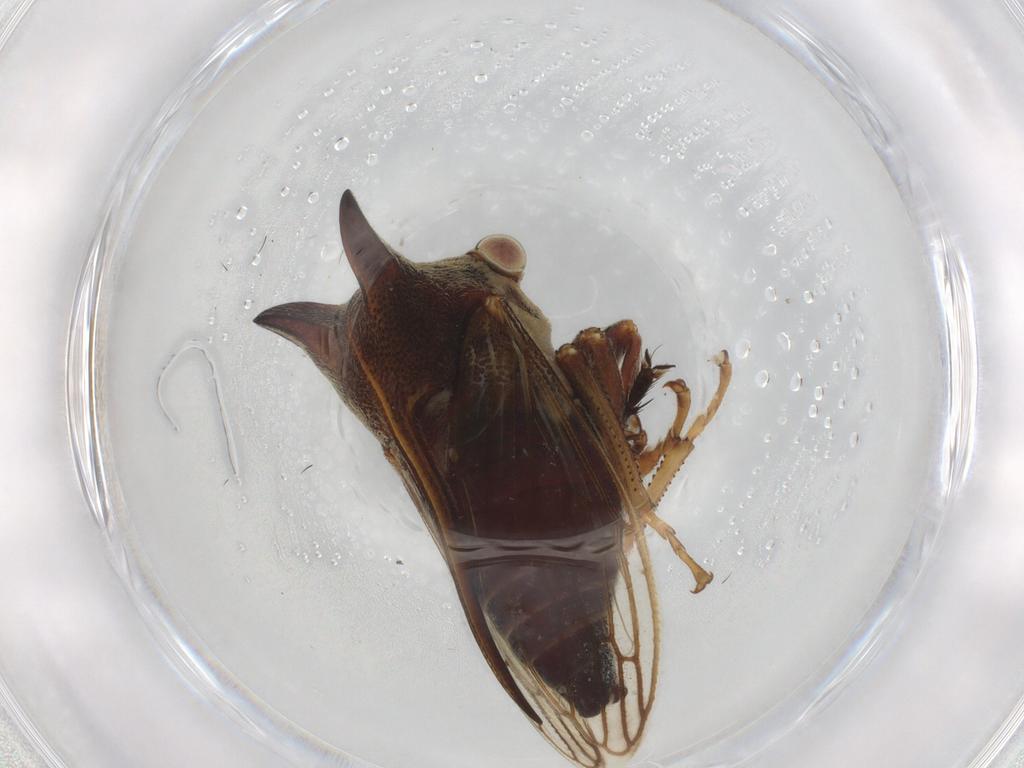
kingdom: Animalia
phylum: Arthropoda
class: Insecta
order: Hemiptera
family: Membracidae
